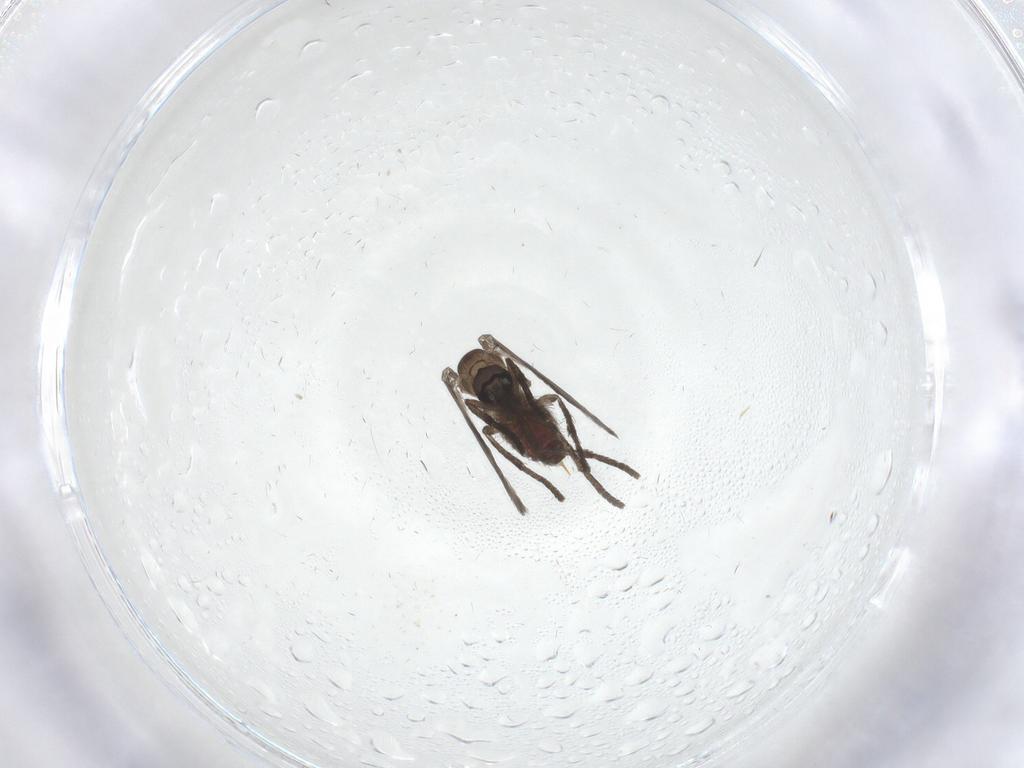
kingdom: Animalia
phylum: Arthropoda
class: Insecta
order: Diptera
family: Psychodidae
